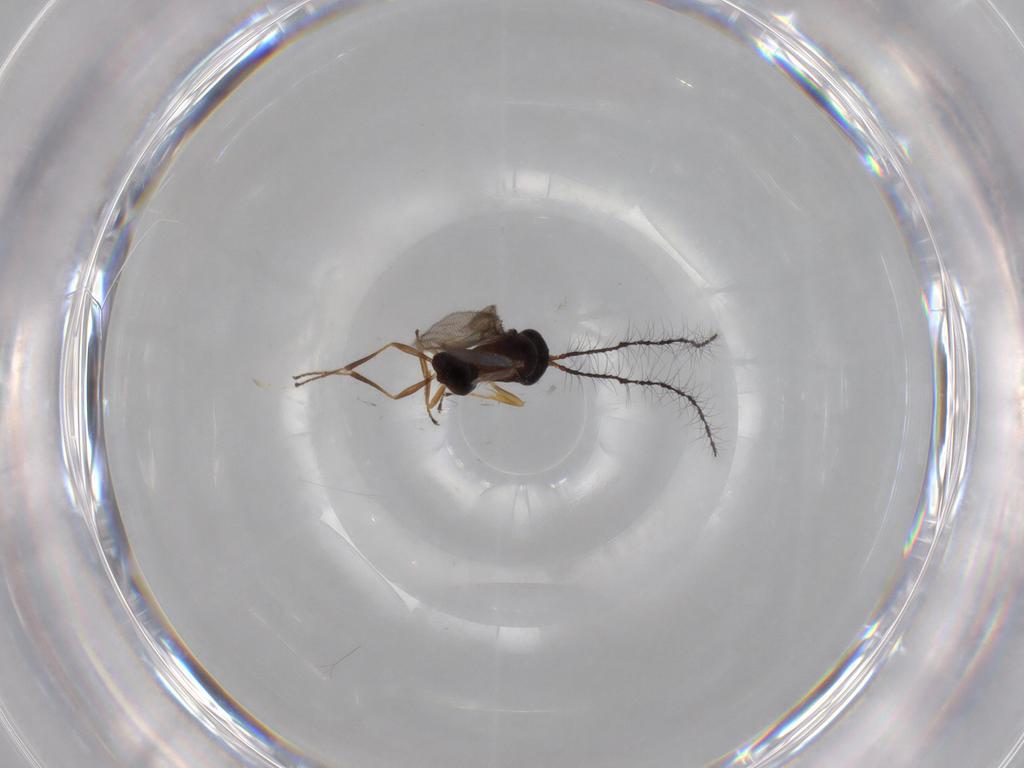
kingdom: Animalia
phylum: Arthropoda
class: Insecta
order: Hymenoptera
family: Scelionidae
